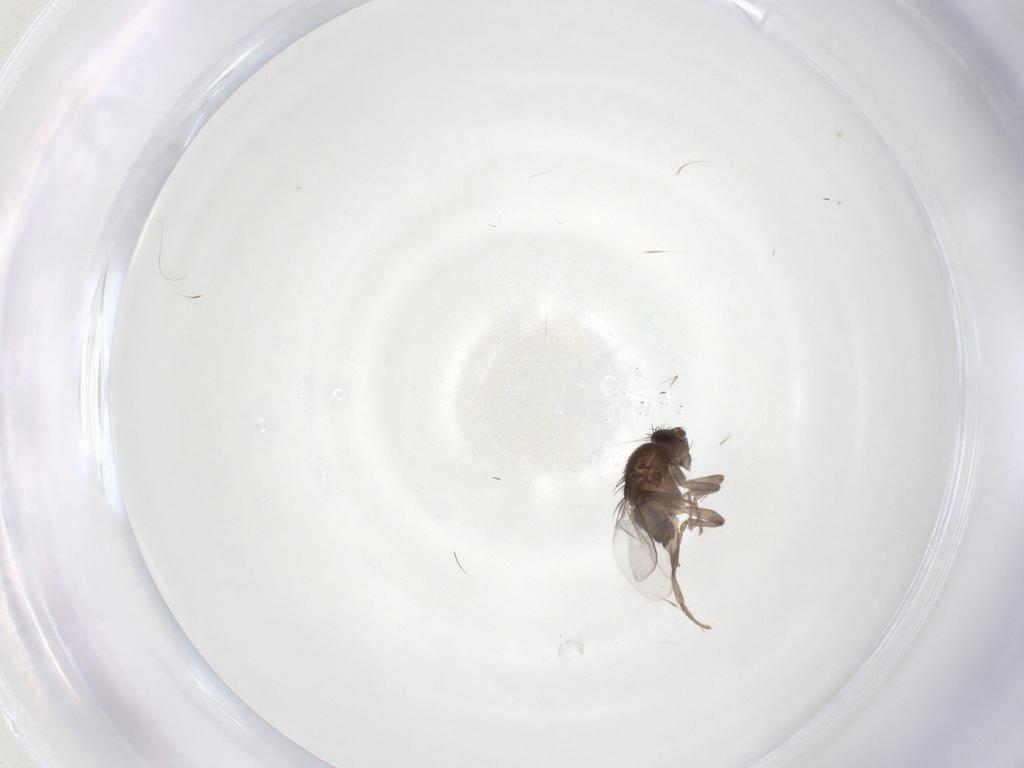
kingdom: Animalia
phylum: Arthropoda
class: Insecta
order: Diptera
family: Sphaeroceridae
